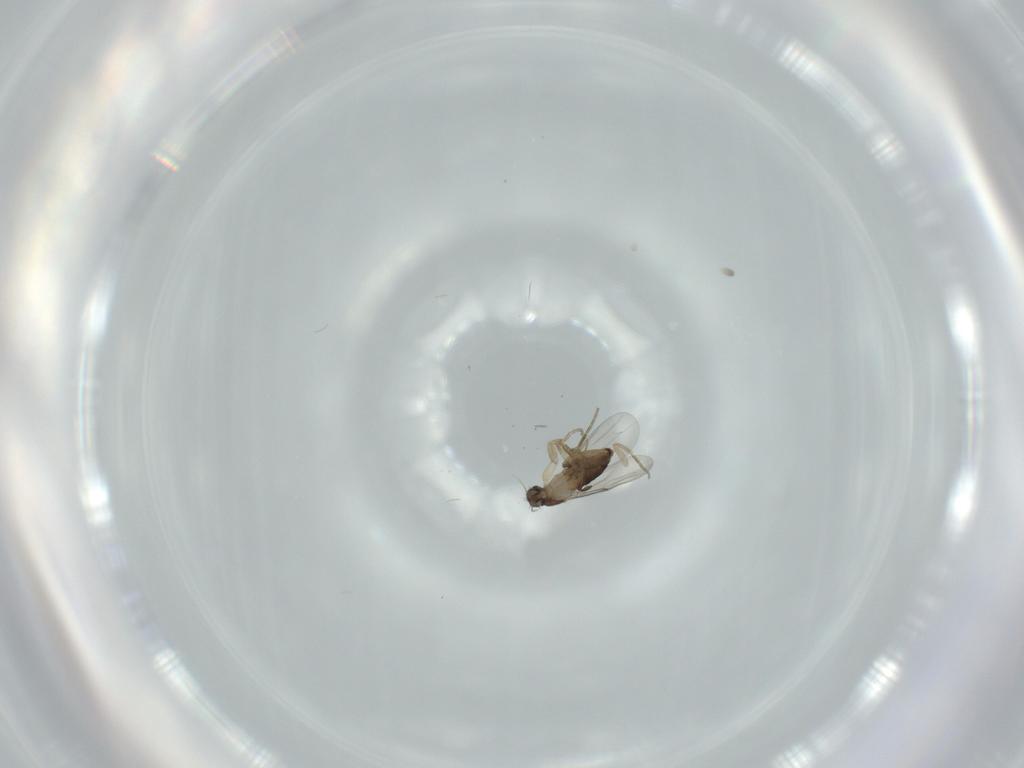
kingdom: Animalia
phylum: Arthropoda
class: Insecta
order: Diptera
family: Phoridae
